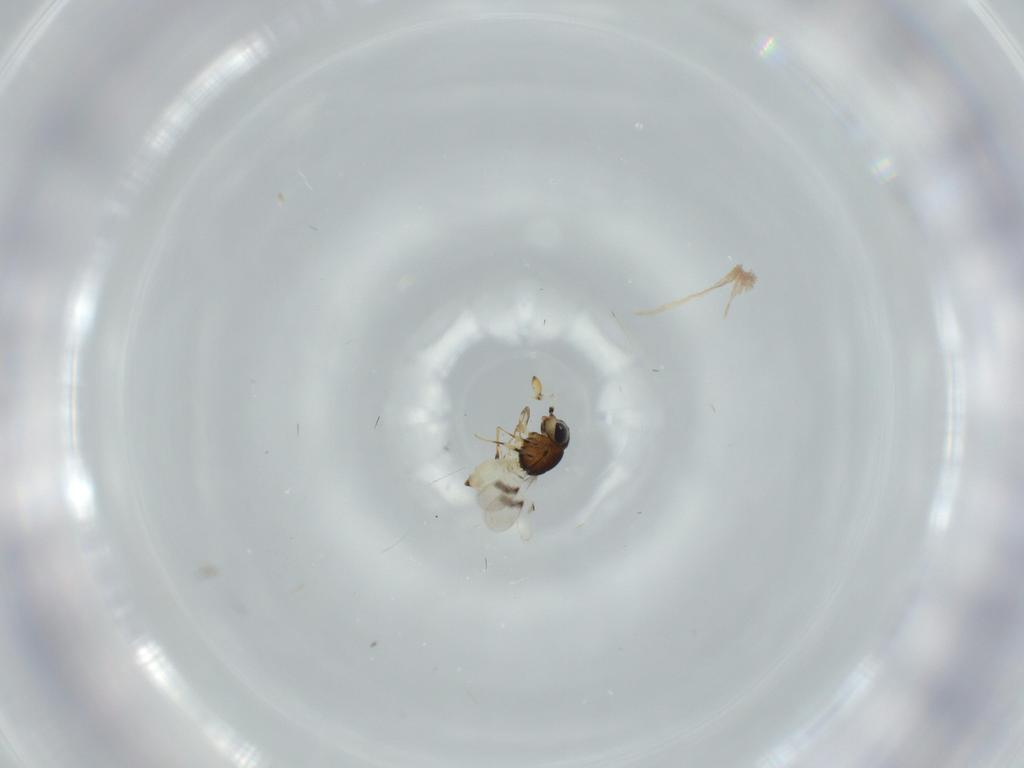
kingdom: Animalia
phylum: Arthropoda
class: Insecta
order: Hymenoptera
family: Scelionidae
